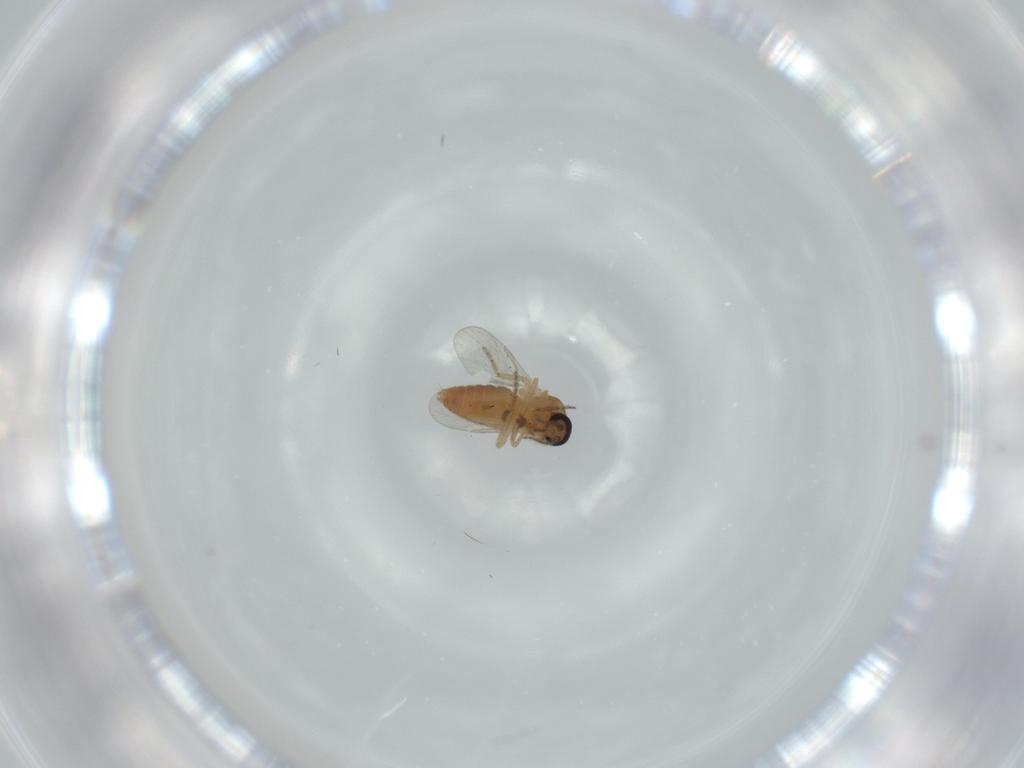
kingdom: Animalia
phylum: Arthropoda
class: Insecta
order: Diptera
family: Ceratopogonidae
